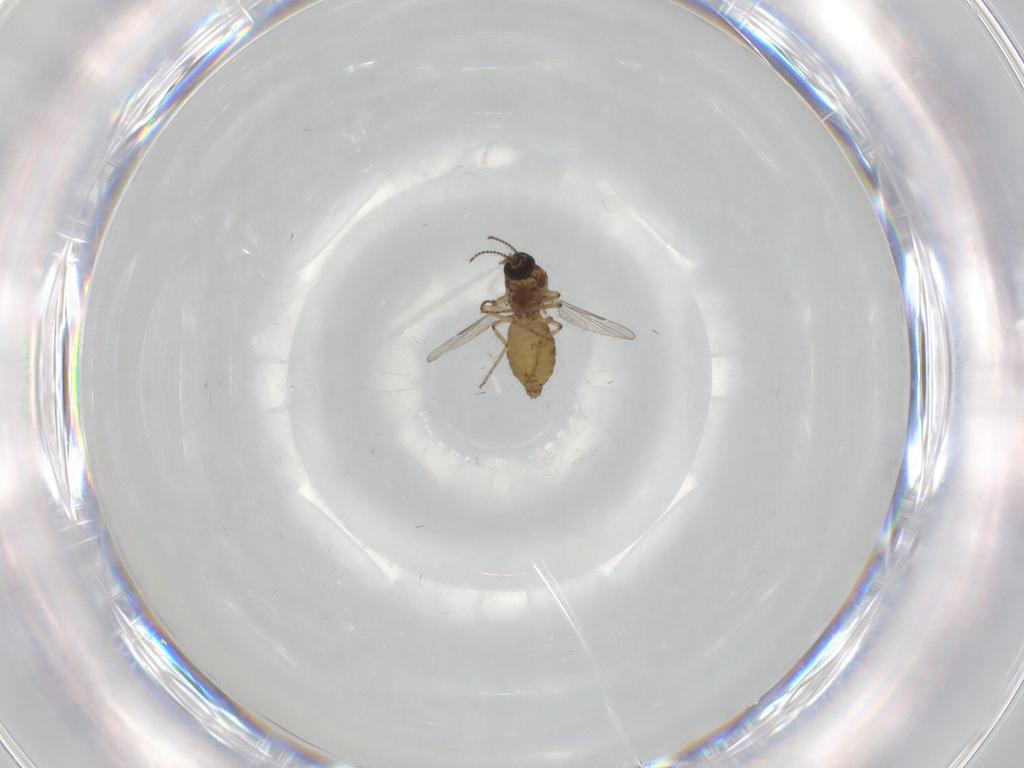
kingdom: Animalia
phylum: Arthropoda
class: Insecta
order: Diptera
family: Ceratopogonidae
